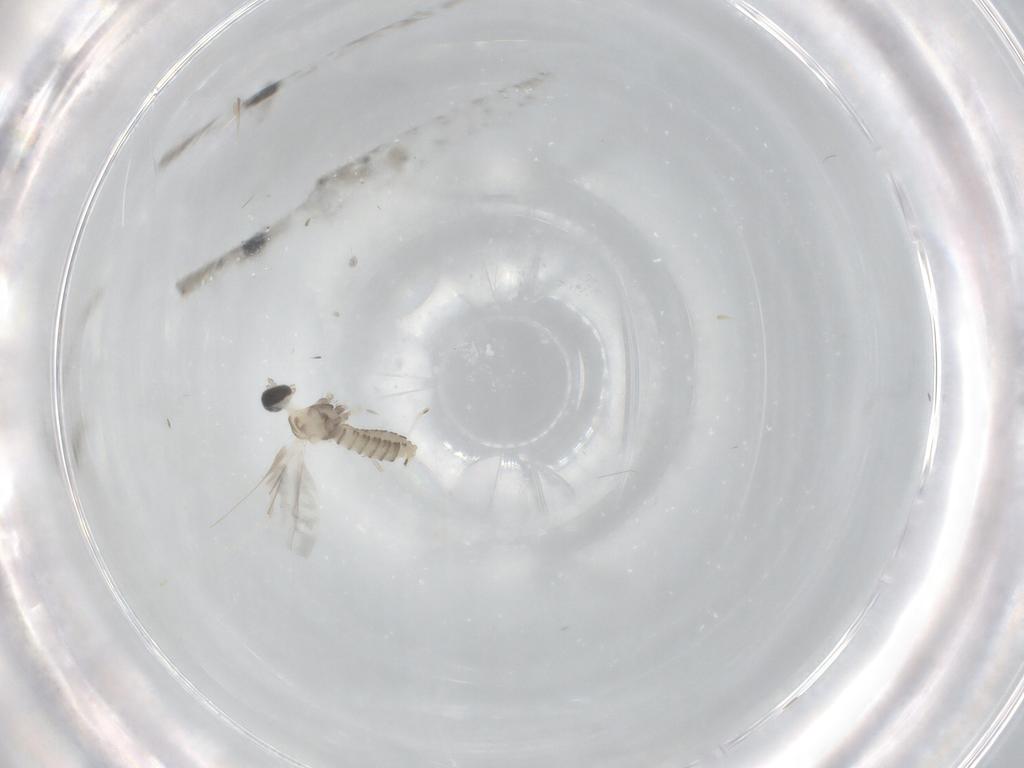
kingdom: Animalia
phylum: Arthropoda
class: Insecta
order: Diptera
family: Cecidomyiidae
